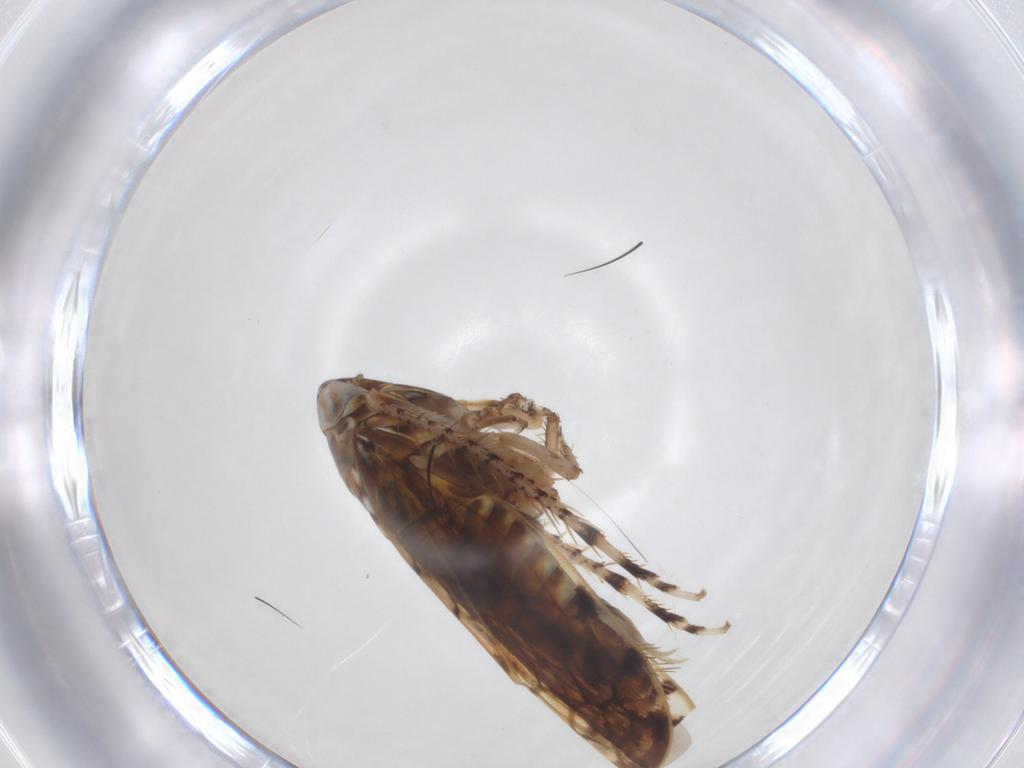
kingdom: Animalia
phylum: Arthropoda
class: Insecta
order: Hemiptera
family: Cicadellidae
